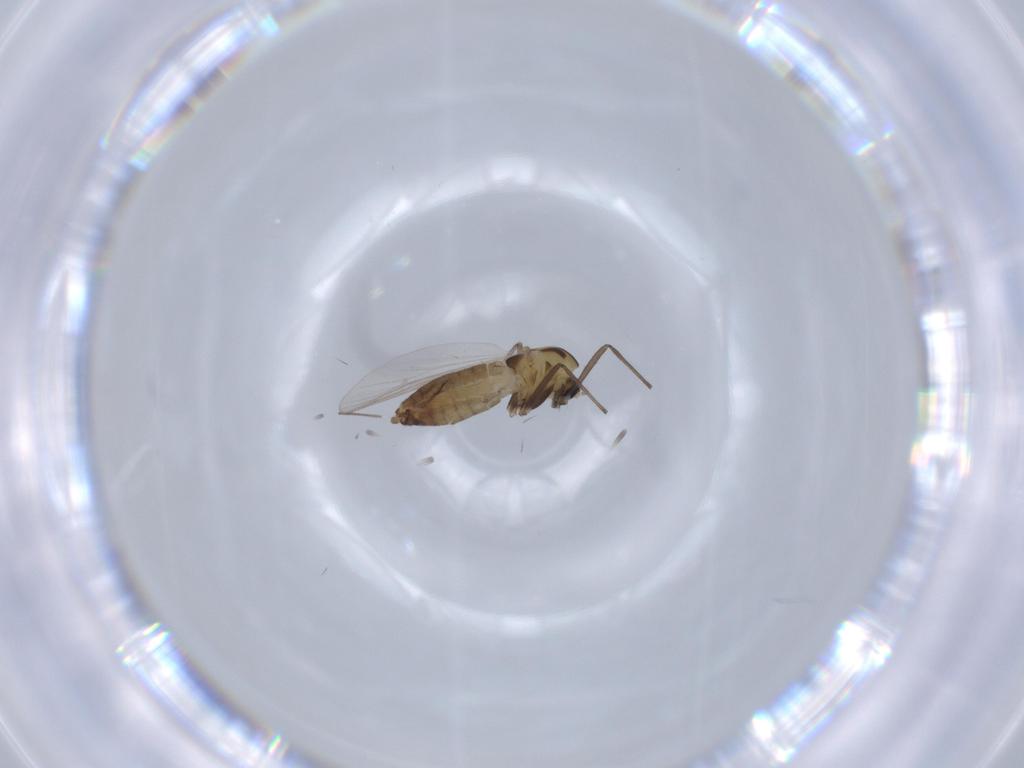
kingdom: Animalia
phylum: Arthropoda
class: Insecta
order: Diptera
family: Chironomidae
